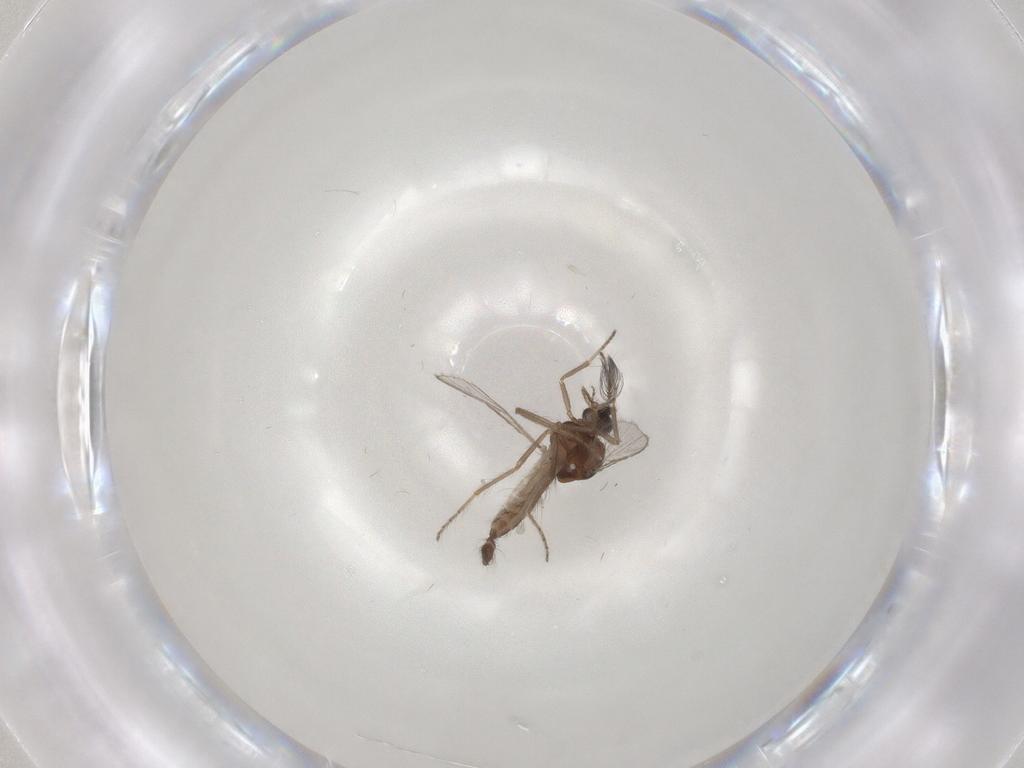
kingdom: Animalia
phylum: Arthropoda
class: Insecta
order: Diptera
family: Ceratopogonidae
